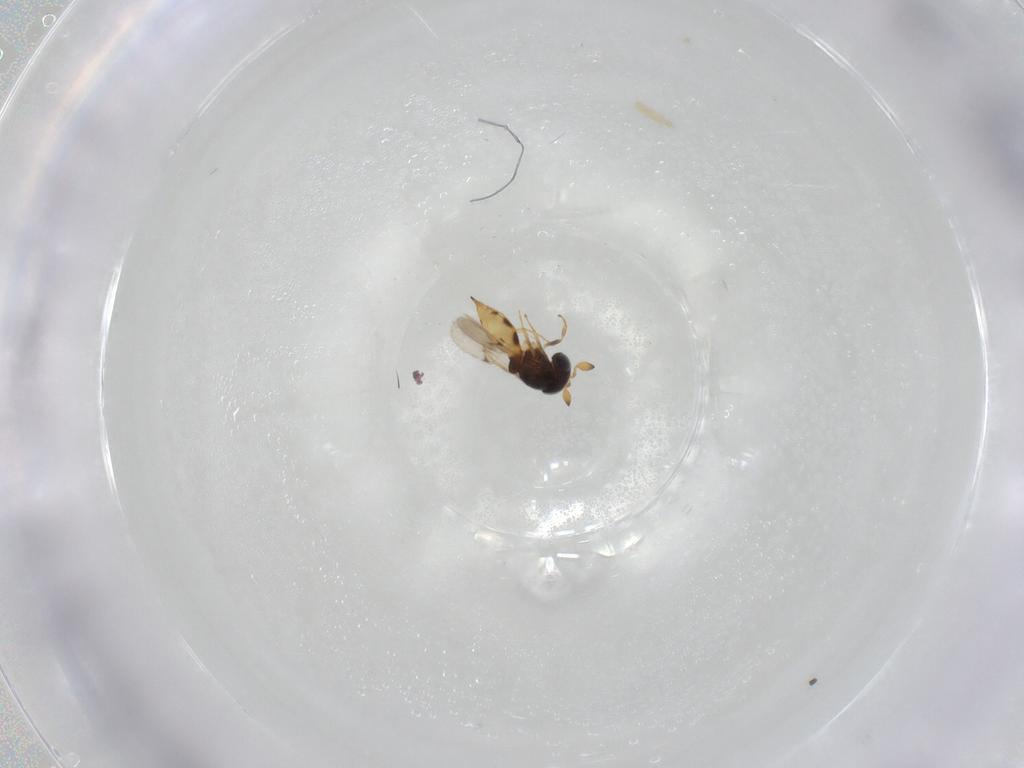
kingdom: Animalia
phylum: Arthropoda
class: Insecta
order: Hymenoptera
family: Scelionidae
